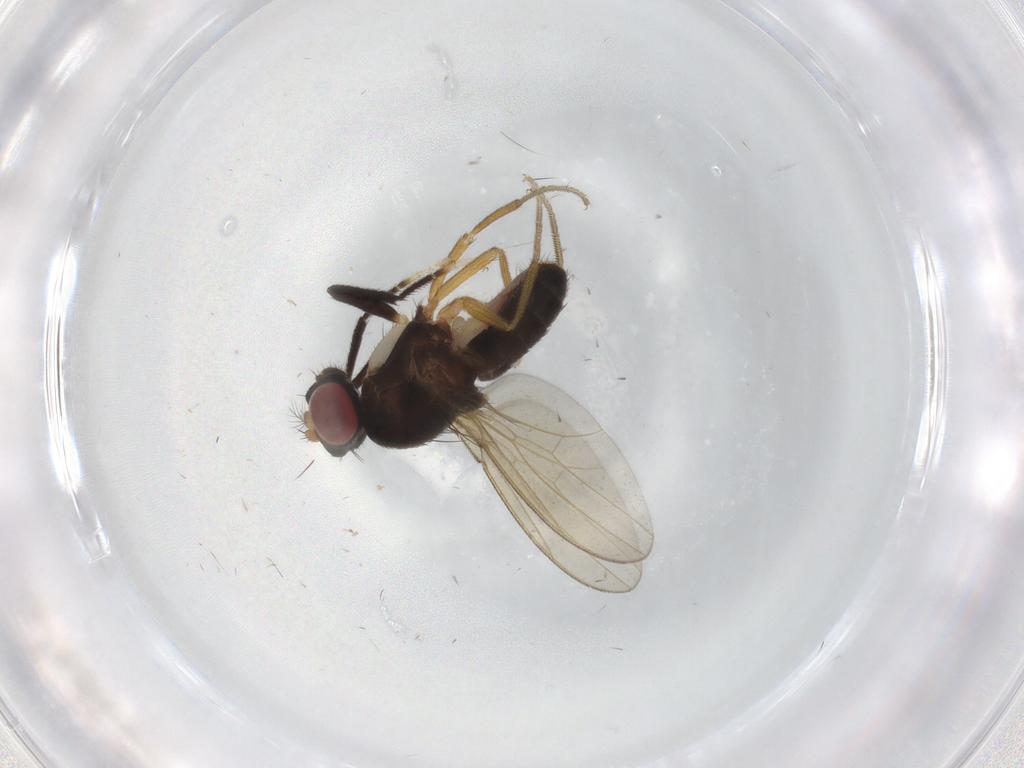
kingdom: Animalia
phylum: Arthropoda
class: Insecta
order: Diptera
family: Drosophilidae
